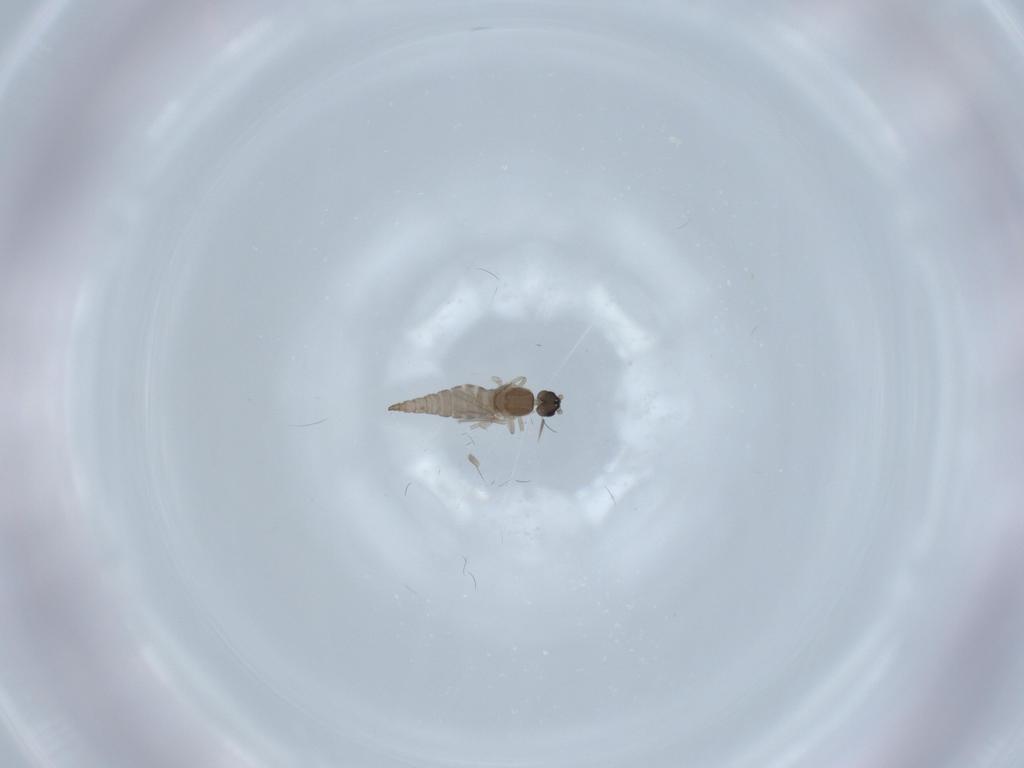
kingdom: Animalia
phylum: Arthropoda
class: Insecta
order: Diptera
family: Cecidomyiidae
